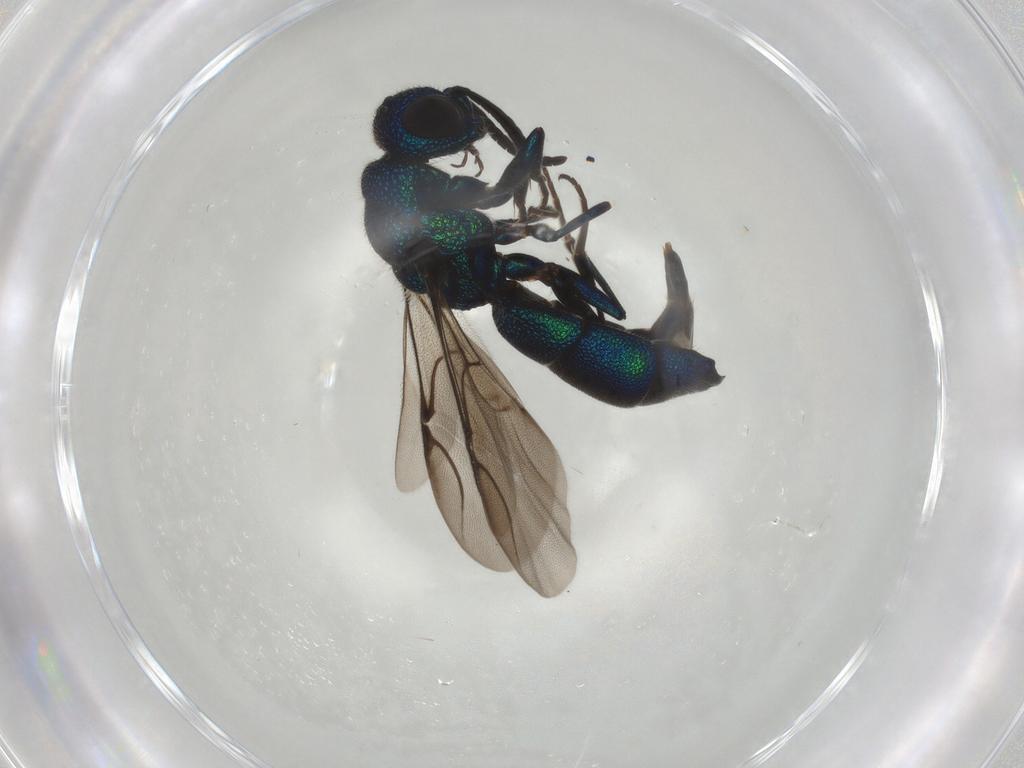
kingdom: Animalia
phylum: Arthropoda
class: Insecta
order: Hymenoptera
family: Chrysididae
